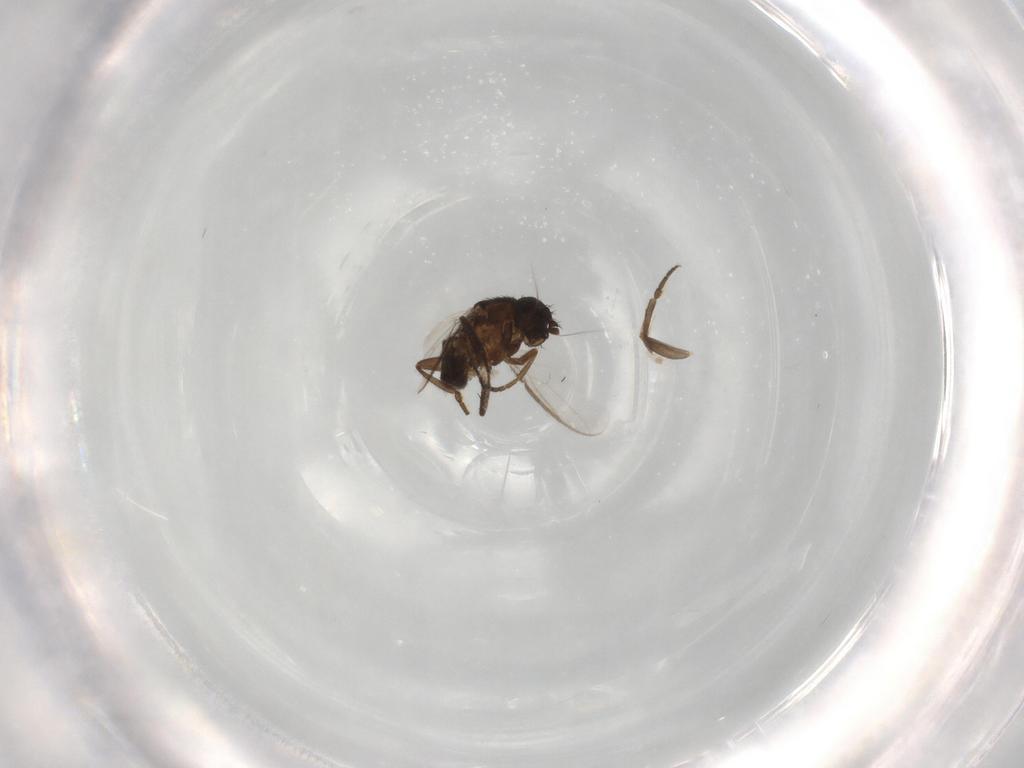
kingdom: Animalia
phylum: Arthropoda
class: Insecta
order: Diptera
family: Sphaeroceridae
